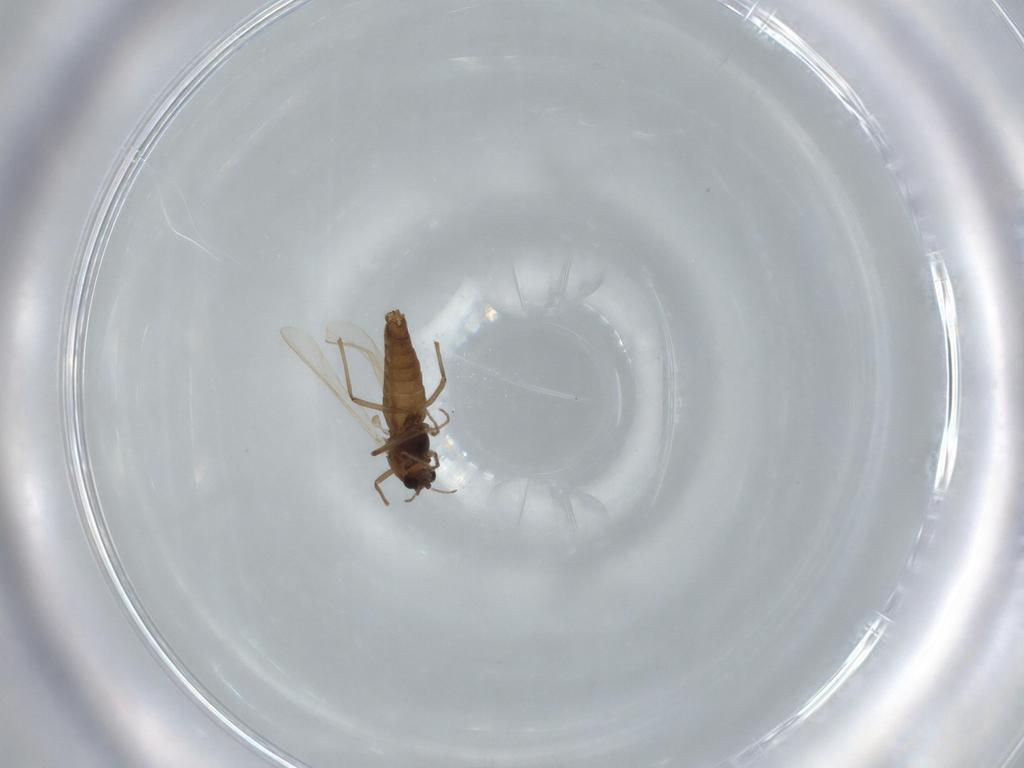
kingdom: Animalia
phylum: Arthropoda
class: Insecta
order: Diptera
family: Chironomidae
